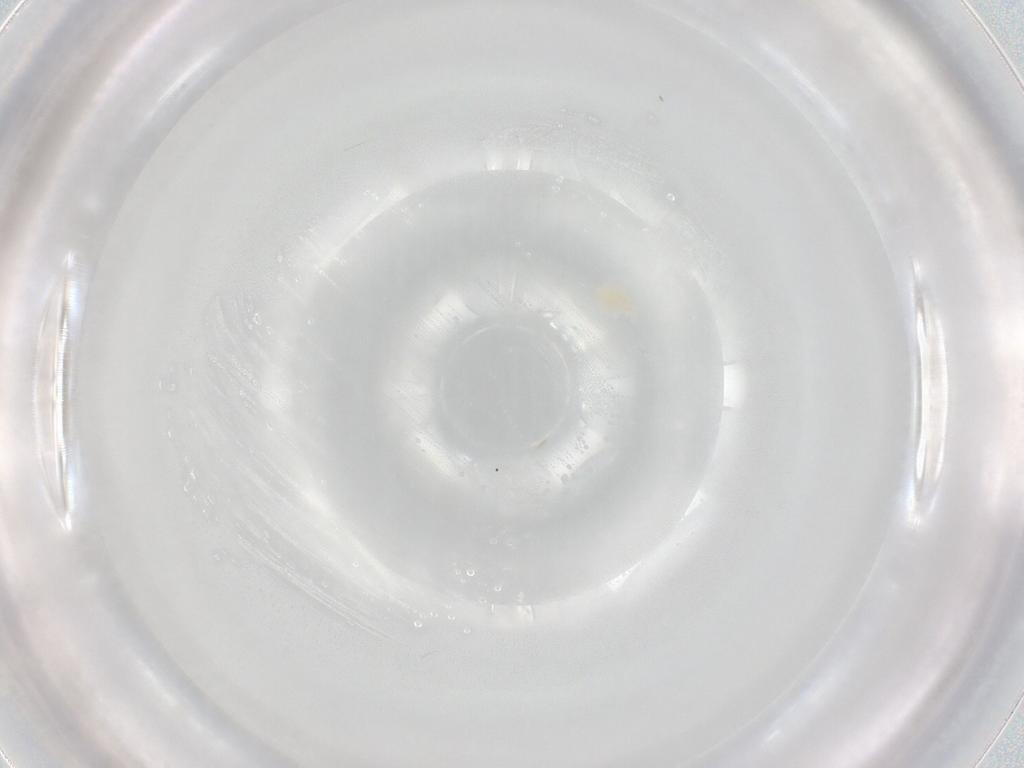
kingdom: Animalia
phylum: Arthropoda
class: Arachnida
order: Trombidiformes
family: Eupodidae
